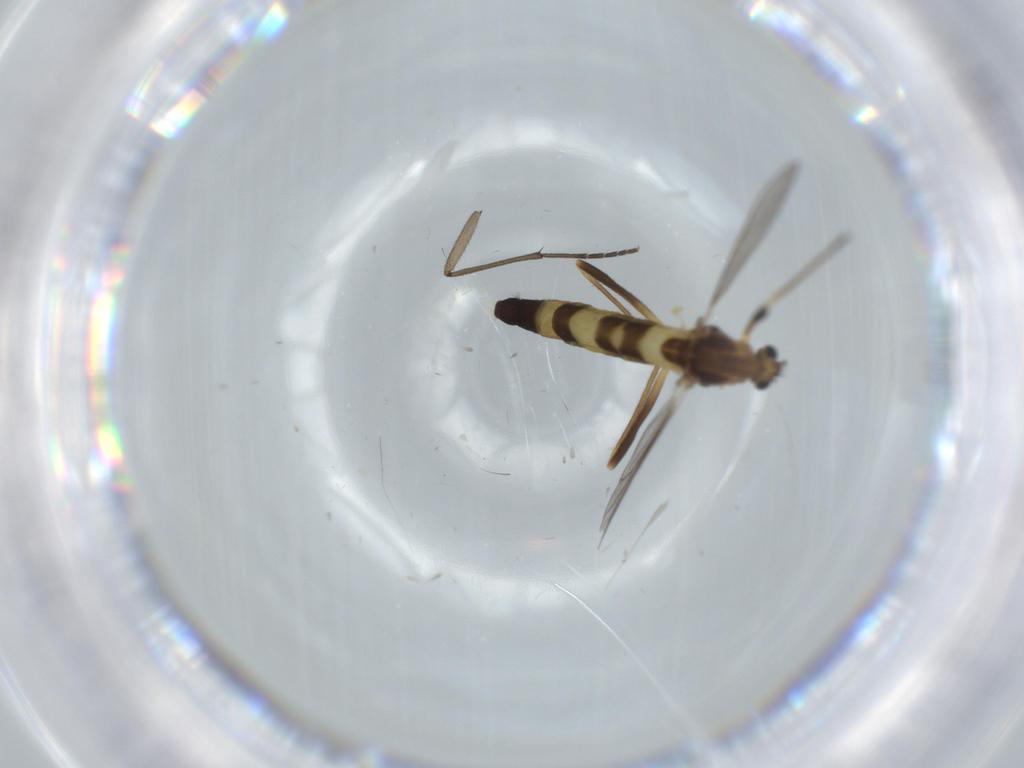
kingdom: Animalia
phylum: Arthropoda
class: Insecta
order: Diptera
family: Chironomidae
